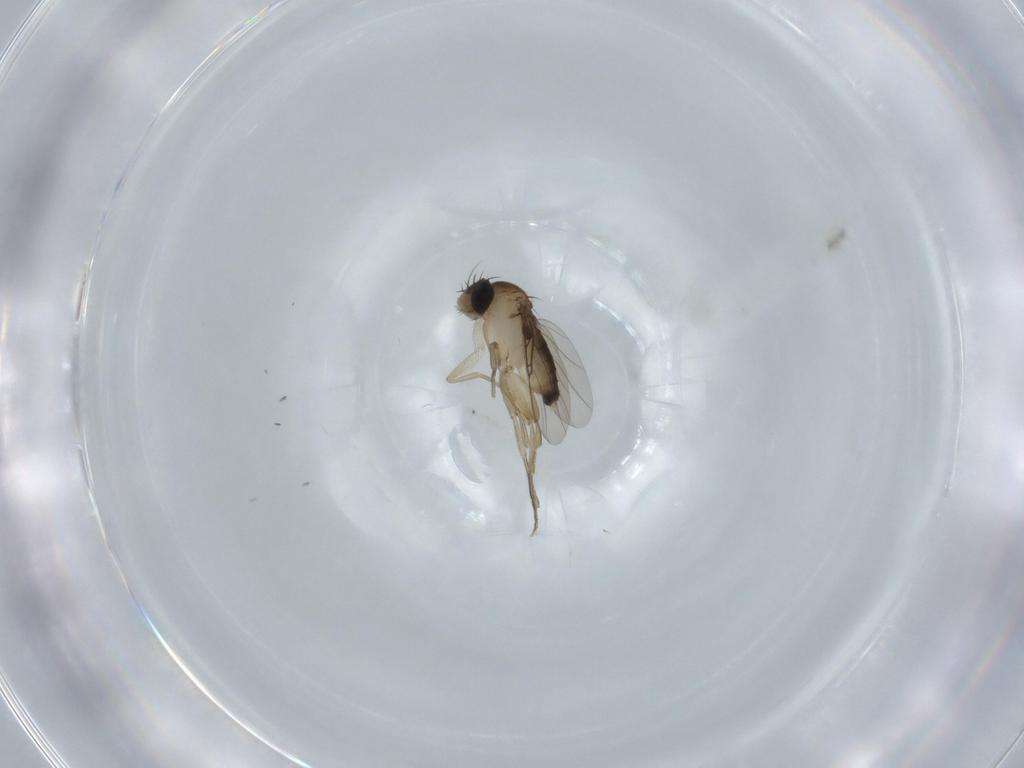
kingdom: Animalia
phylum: Arthropoda
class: Insecta
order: Diptera
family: Phoridae
